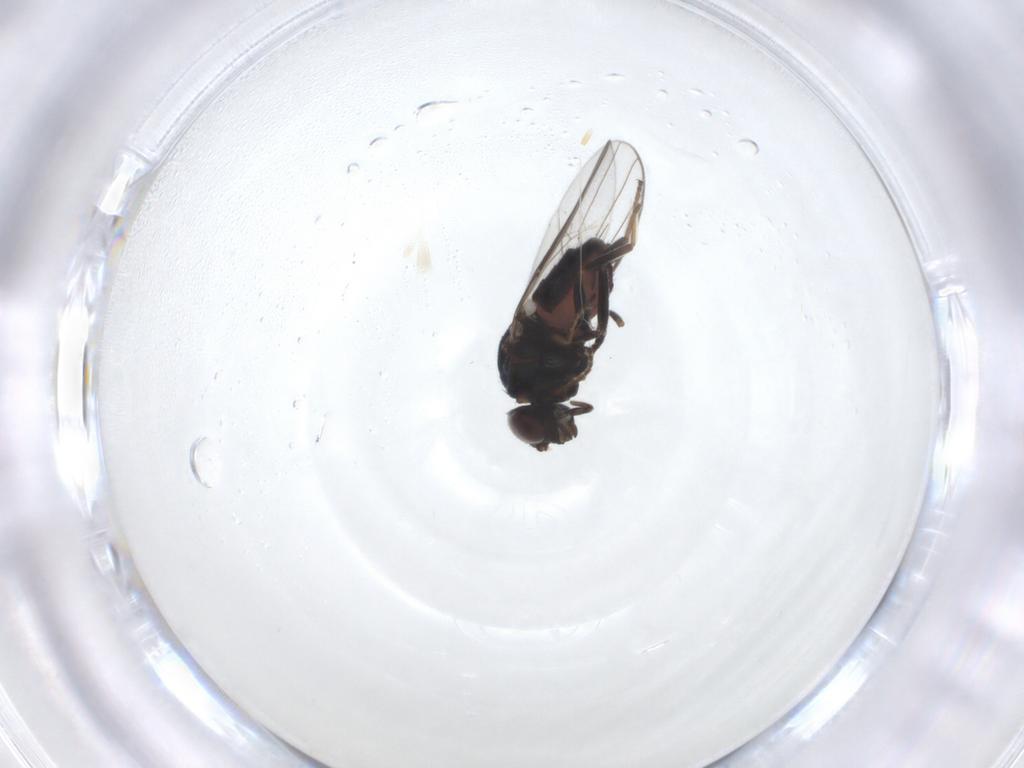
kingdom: Animalia
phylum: Arthropoda
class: Insecta
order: Diptera
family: Chloropidae
